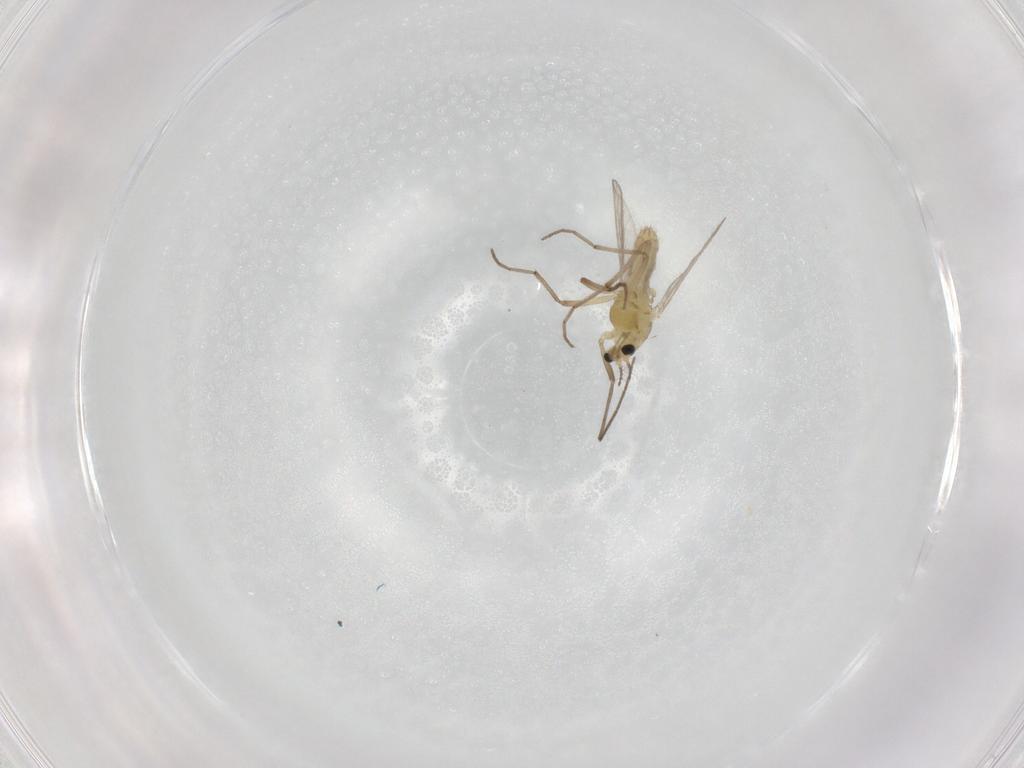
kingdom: Animalia
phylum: Arthropoda
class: Insecta
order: Diptera
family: Chironomidae
